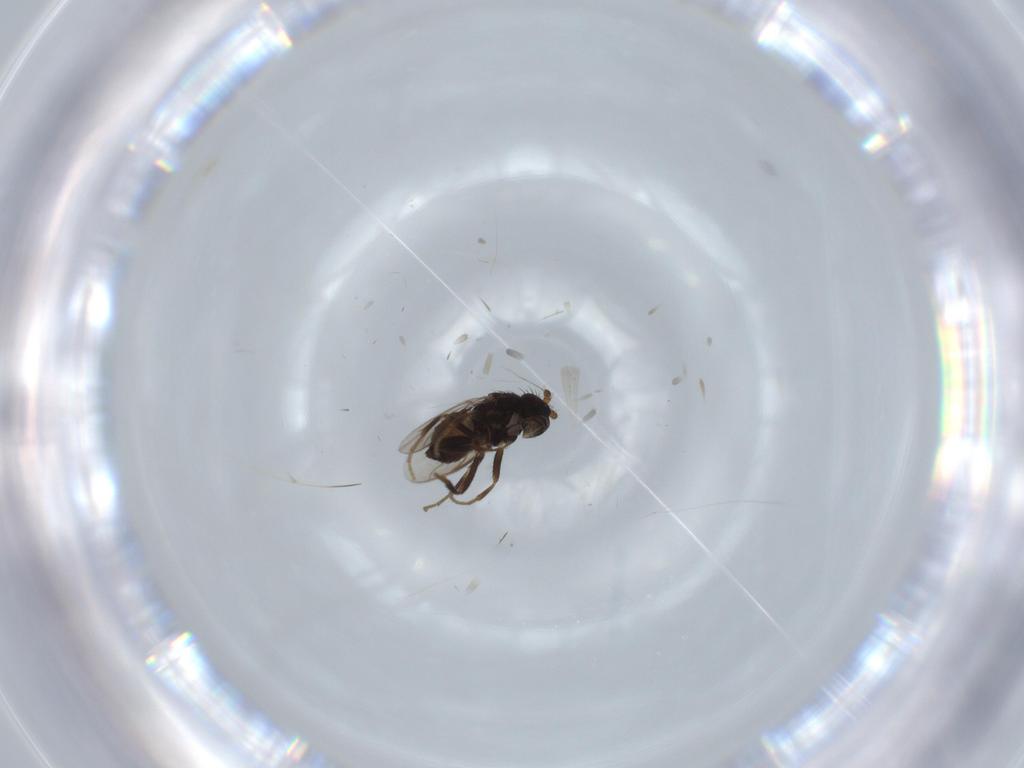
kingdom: Animalia
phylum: Arthropoda
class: Insecta
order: Diptera
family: Sphaeroceridae
